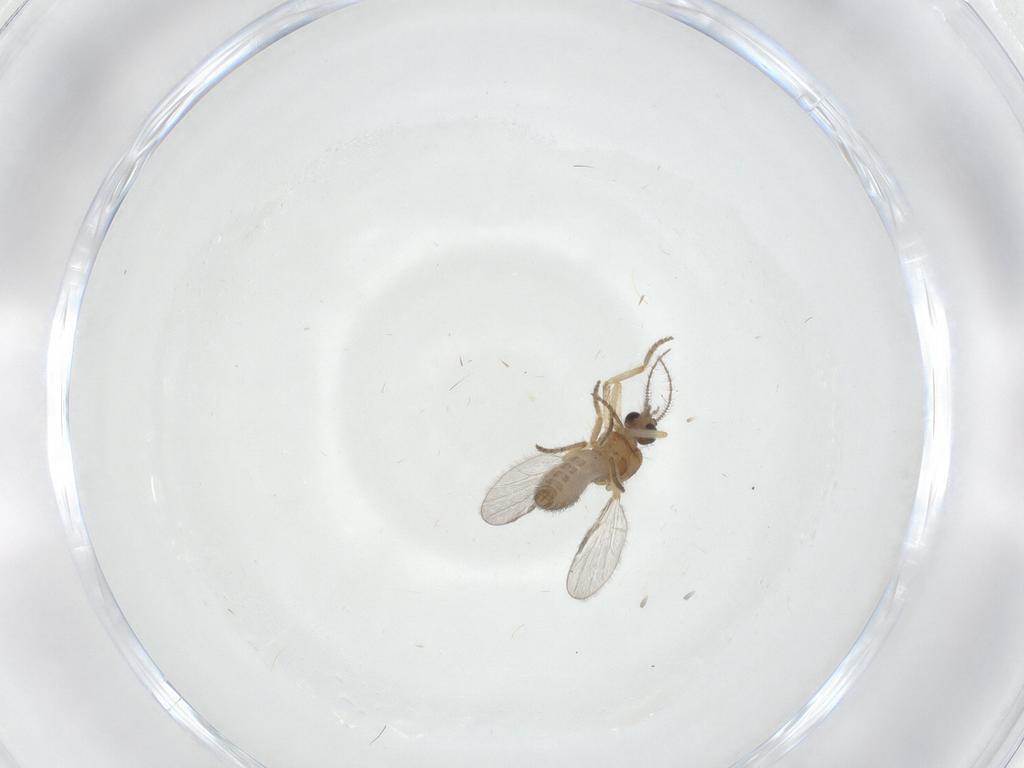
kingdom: Animalia
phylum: Arthropoda
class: Insecta
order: Diptera
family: Ceratopogonidae
